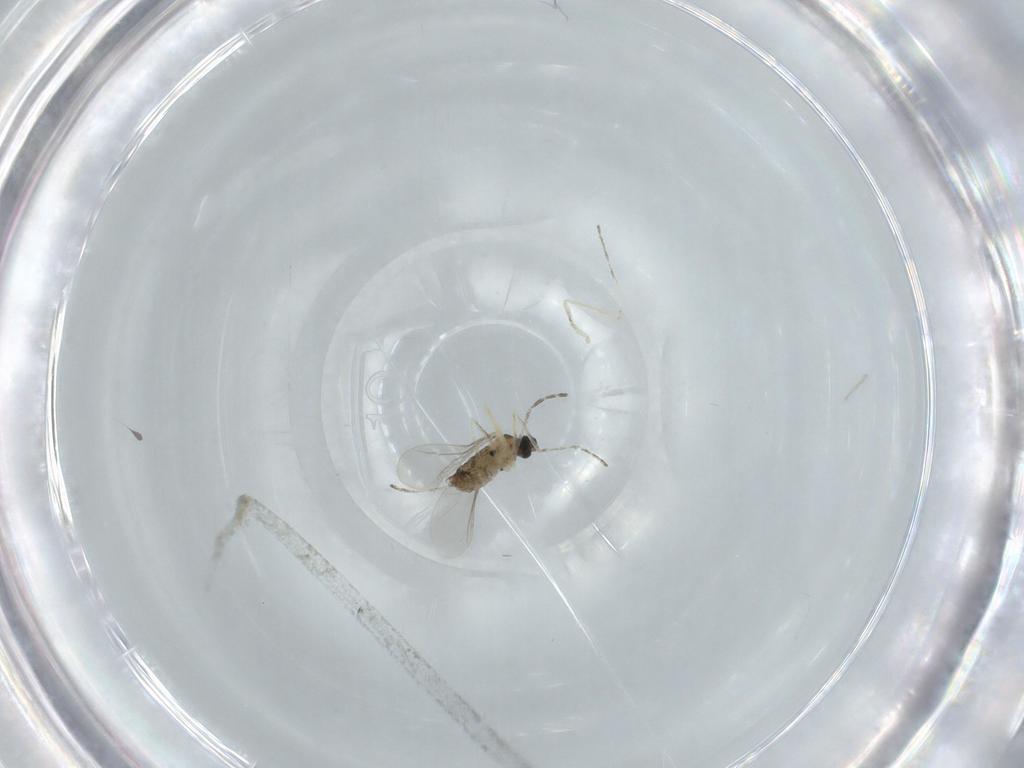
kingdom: Animalia
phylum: Arthropoda
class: Insecta
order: Diptera
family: Cecidomyiidae
